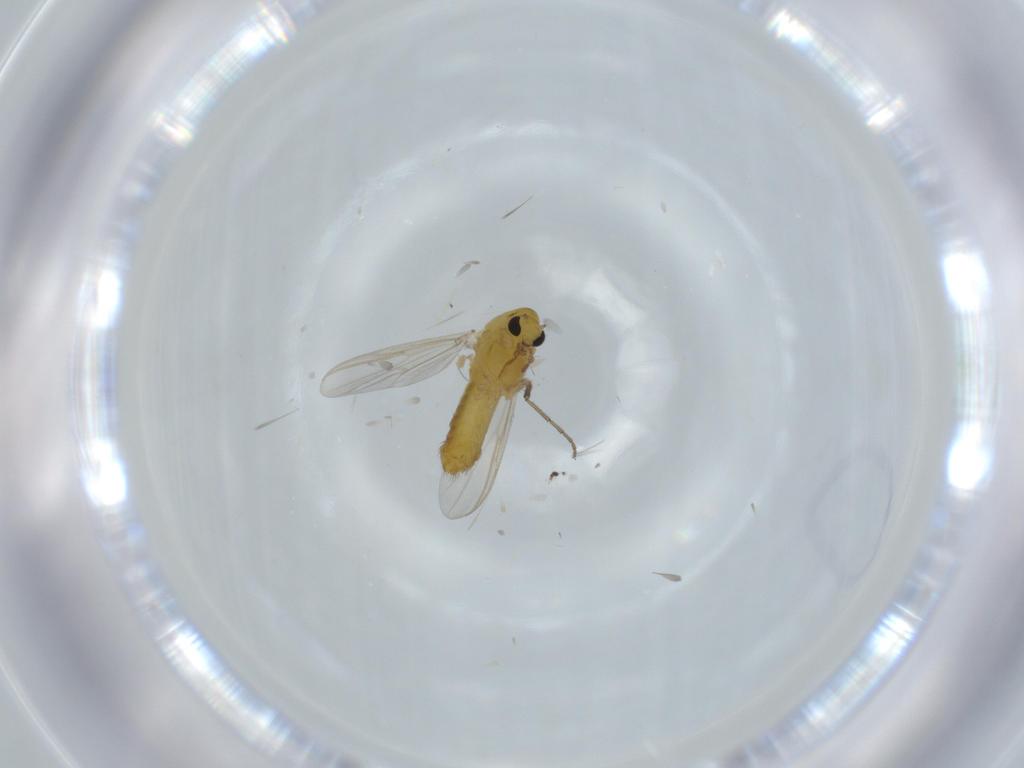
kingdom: Animalia
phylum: Arthropoda
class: Insecta
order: Diptera
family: Chironomidae
